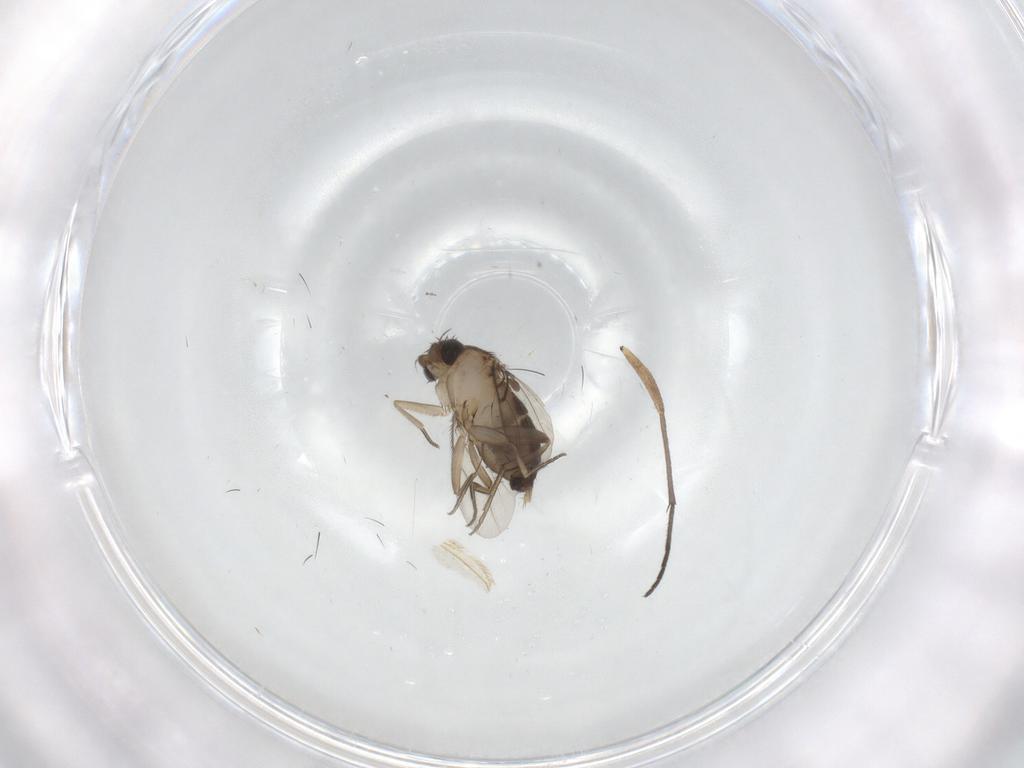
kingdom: Animalia
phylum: Arthropoda
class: Insecta
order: Diptera
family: Phoridae
